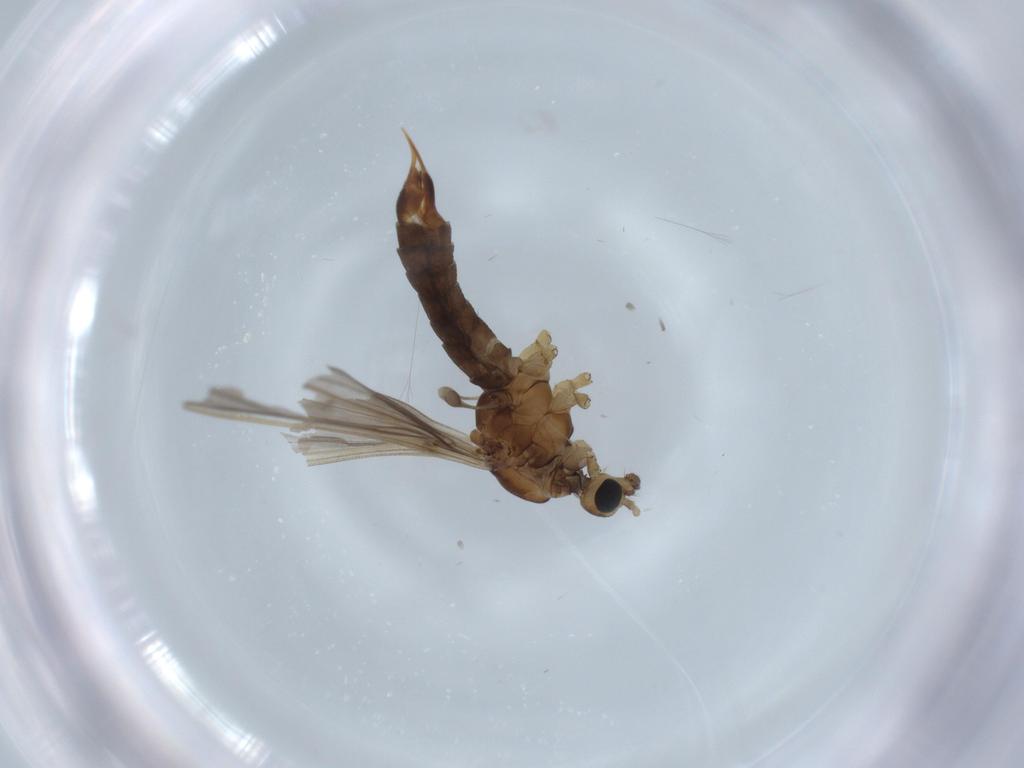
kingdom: Animalia
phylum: Arthropoda
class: Insecta
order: Diptera
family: Limoniidae
